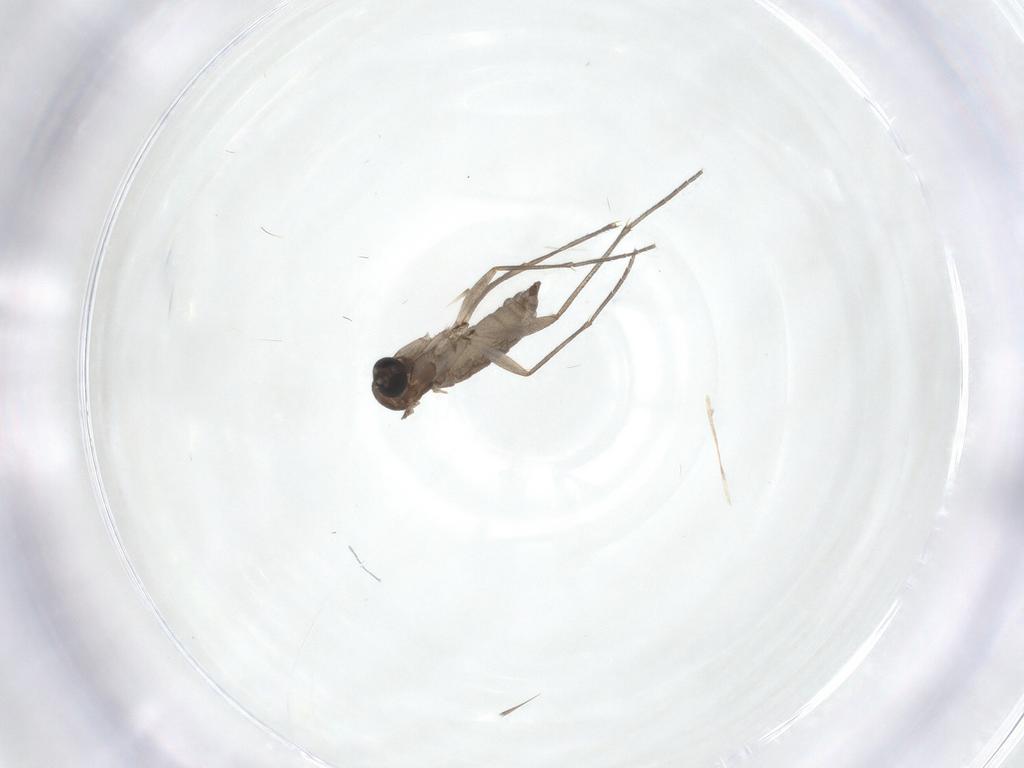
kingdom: Animalia
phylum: Arthropoda
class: Insecta
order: Diptera
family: Sciaridae
